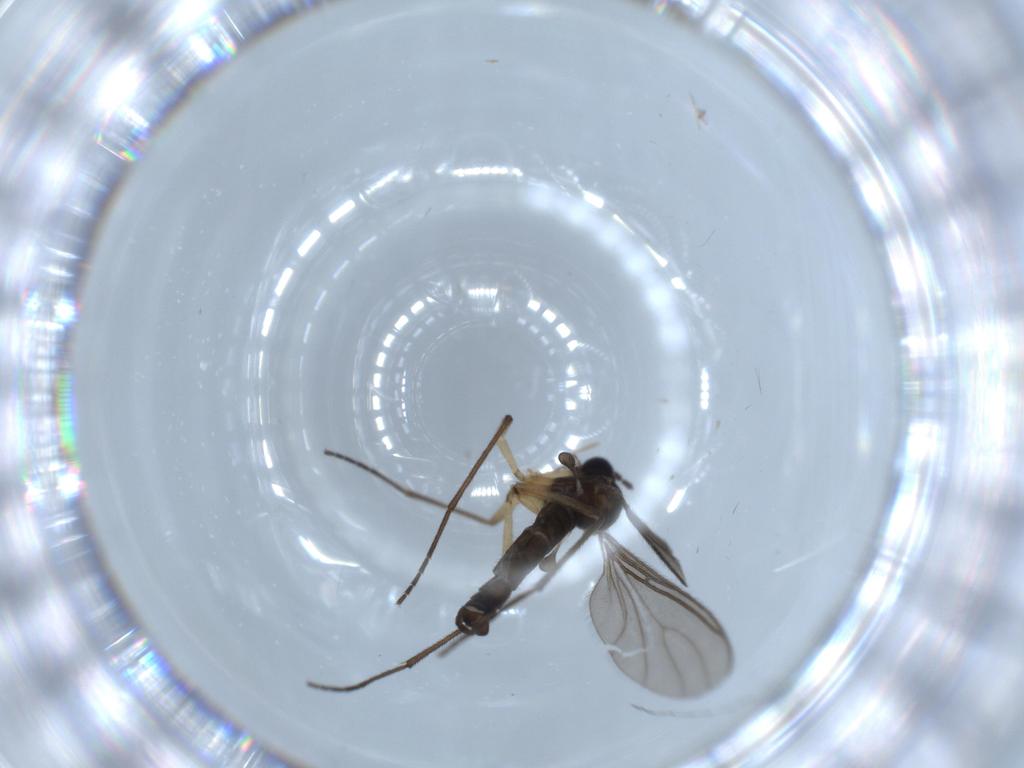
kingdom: Animalia
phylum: Arthropoda
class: Insecta
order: Diptera
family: Sciaridae
